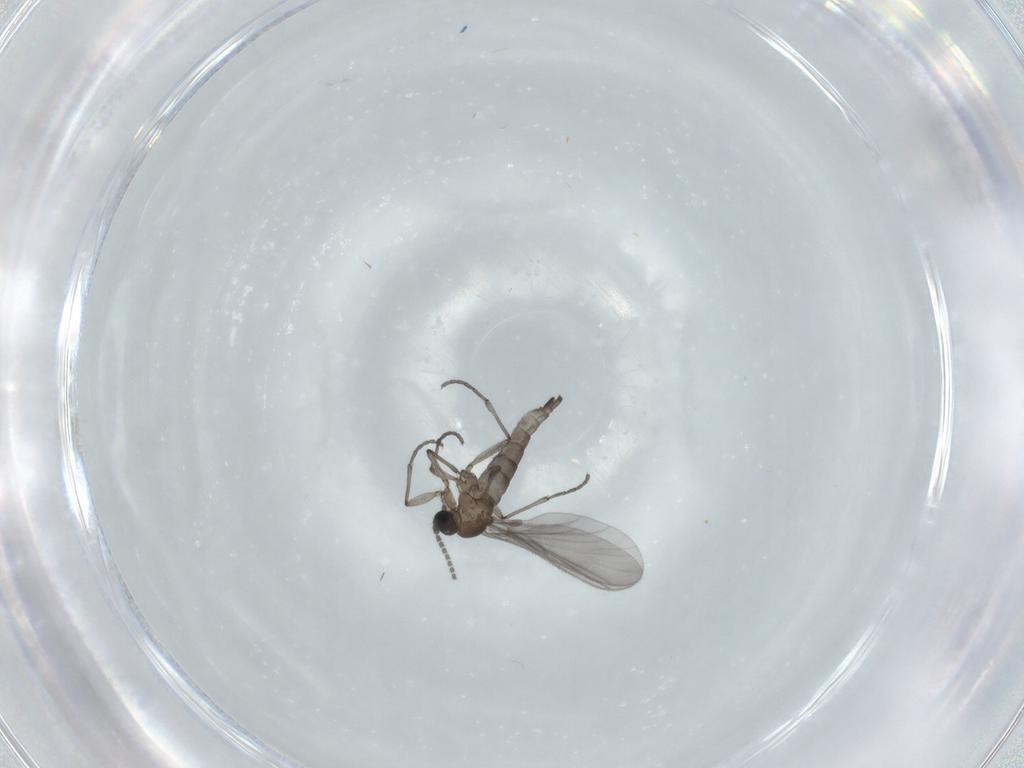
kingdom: Animalia
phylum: Arthropoda
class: Insecta
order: Diptera
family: Sciaridae
